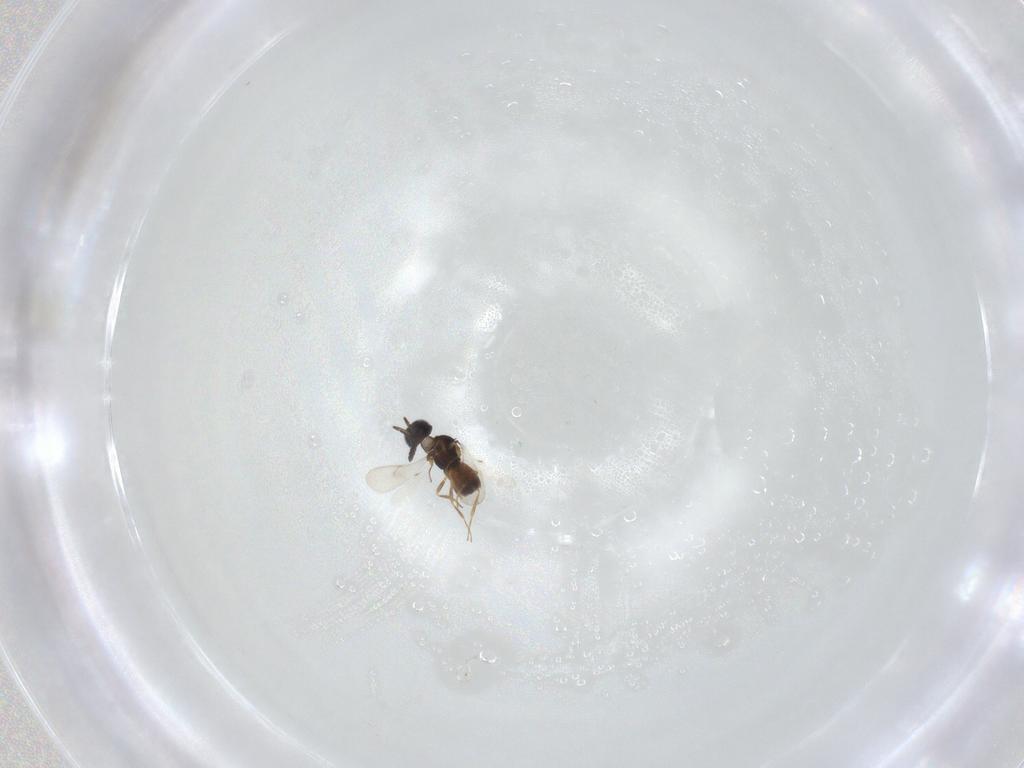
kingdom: Animalia
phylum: Arthropoda
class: Insecta
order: Hymenoptera
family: Scelionidae
